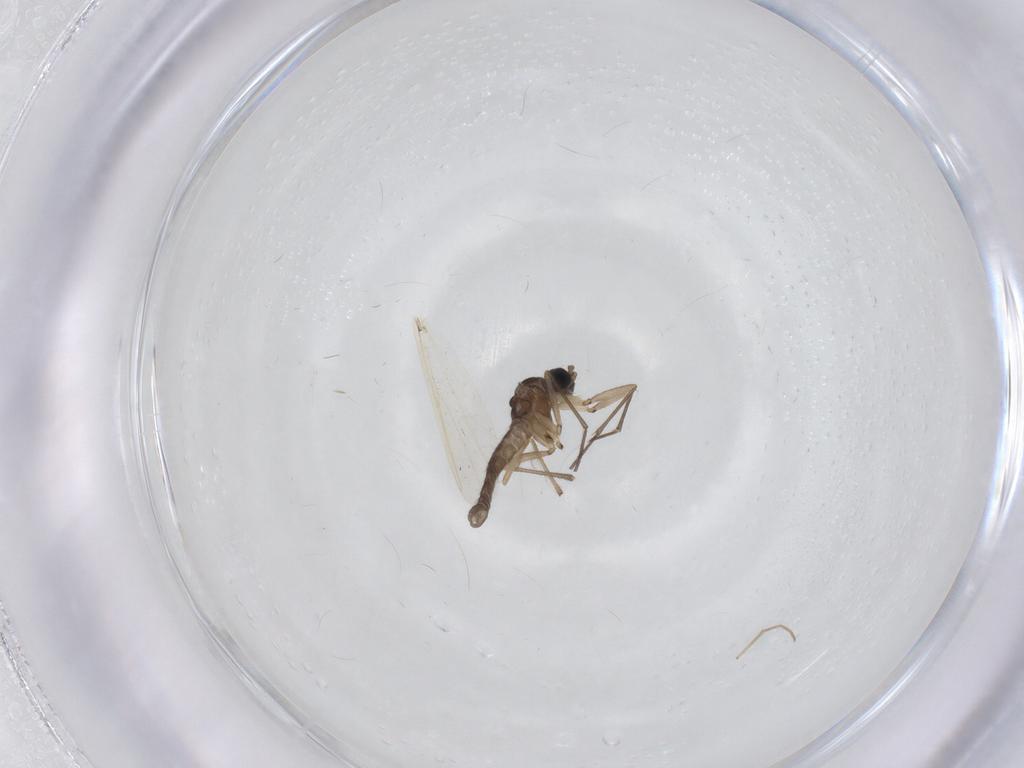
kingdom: Animalia
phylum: Arthropoda
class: Insecta
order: Diptera
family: Sciaridae
